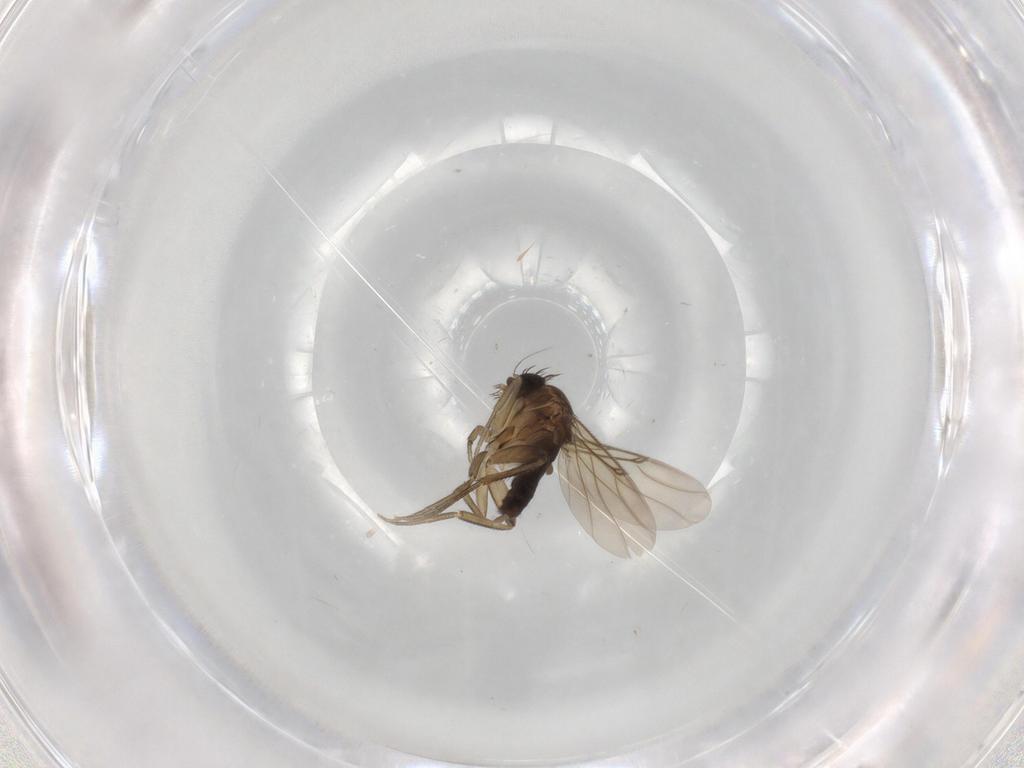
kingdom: Animalia
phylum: Arthropoda
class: Insecta
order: Diptera
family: Phoridae
